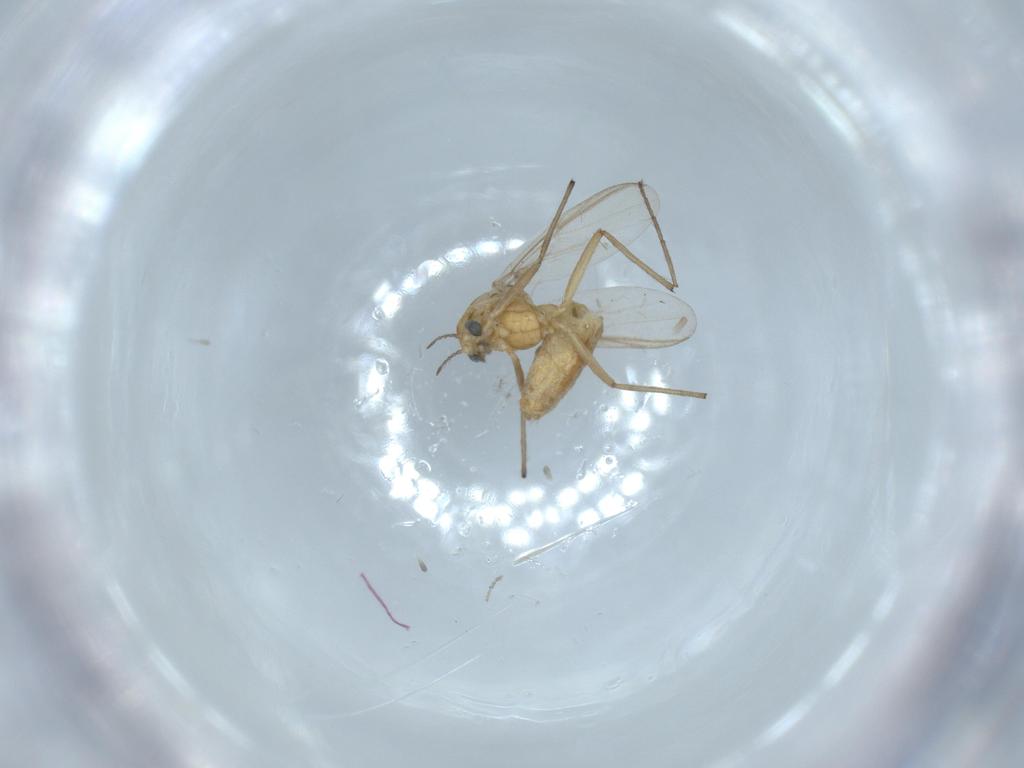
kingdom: Animalia
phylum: Arthropoda
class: Insecta
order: Diptera
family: Chironomidae
